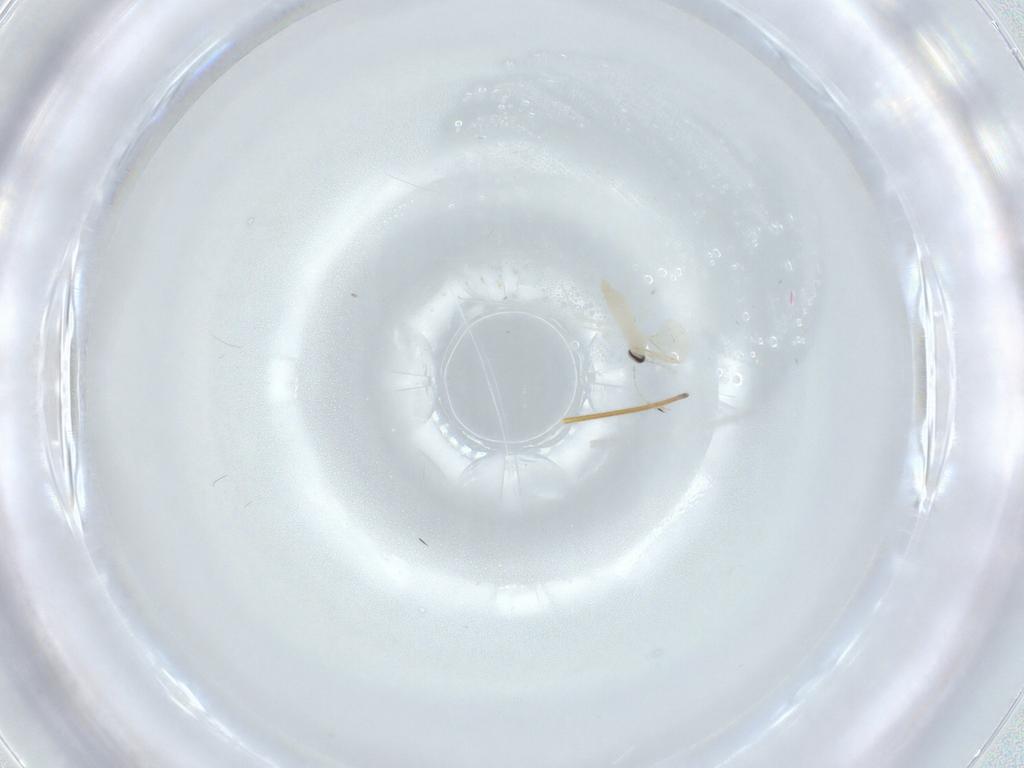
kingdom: Animalia
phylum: Arthropoda
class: Insecta
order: Diptera
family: Cecidomyiidae
